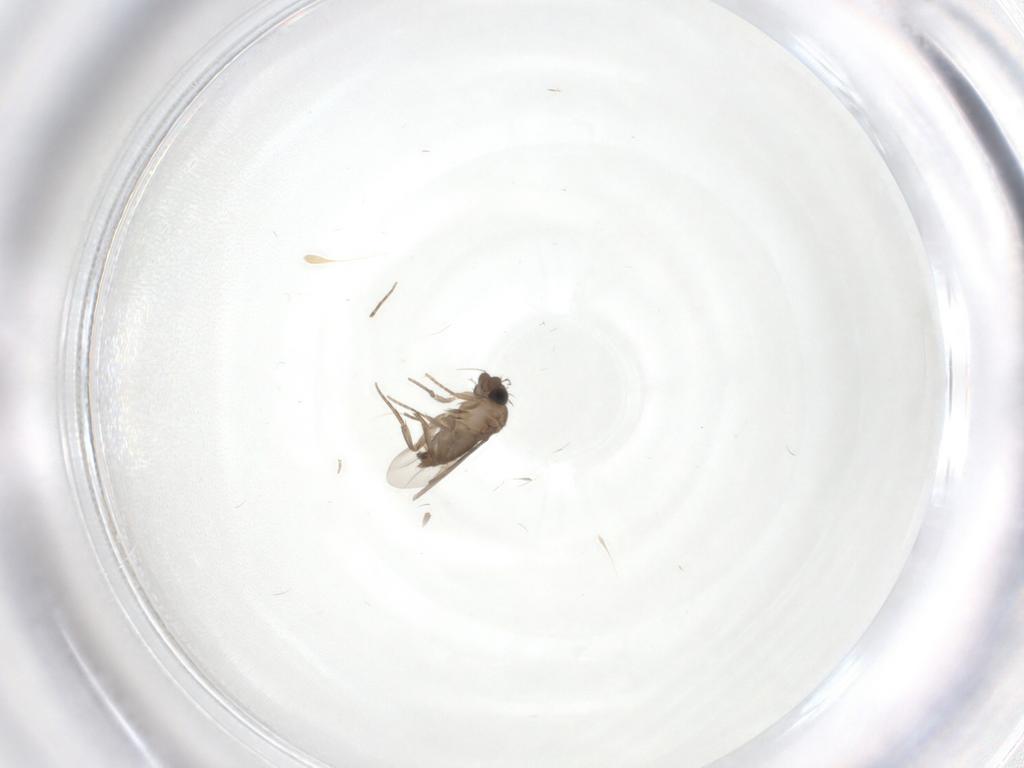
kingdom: Animalia
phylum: Arthropoda
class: Insecta
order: Diptera
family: Phoridae
